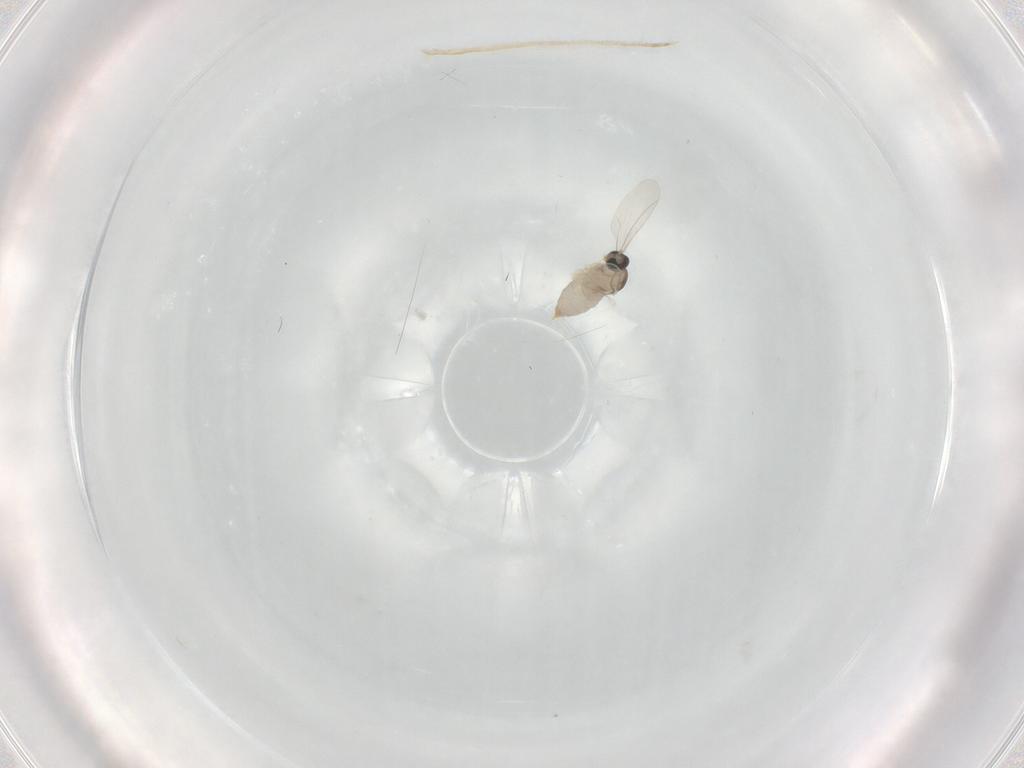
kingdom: Animalia
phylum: Arthropoda
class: Insecta
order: Diptera
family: Cecidomyiidae
